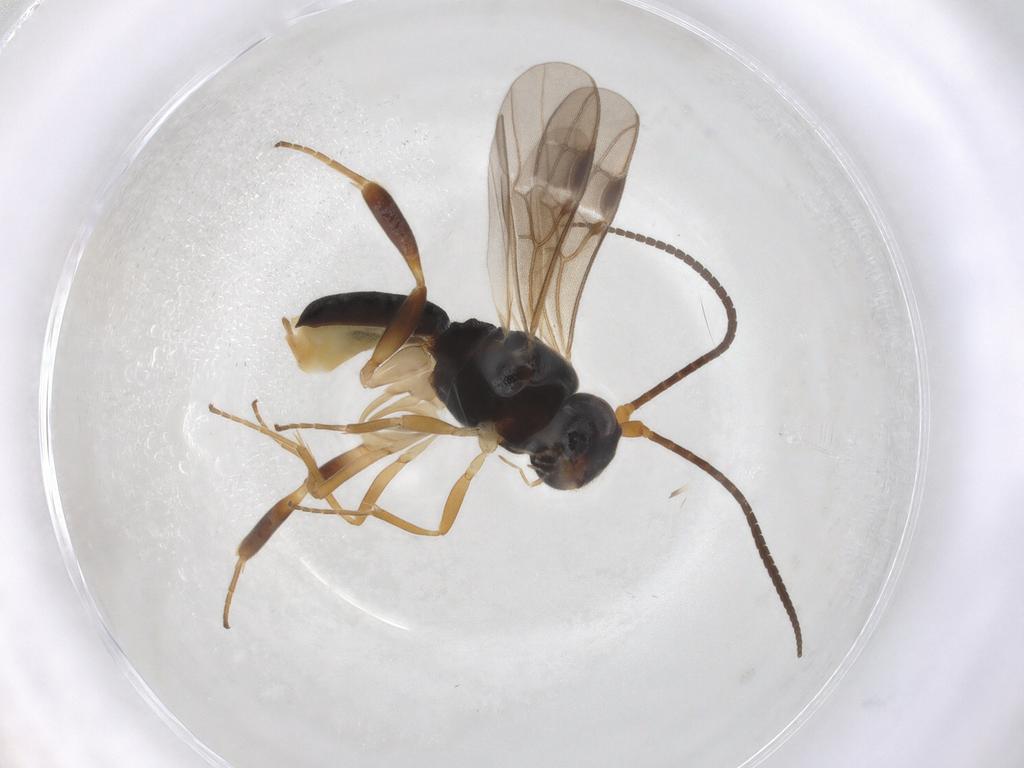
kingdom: Animalia
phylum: Arthropoda
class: Insecta
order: Hymenoptera
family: Braconidae
